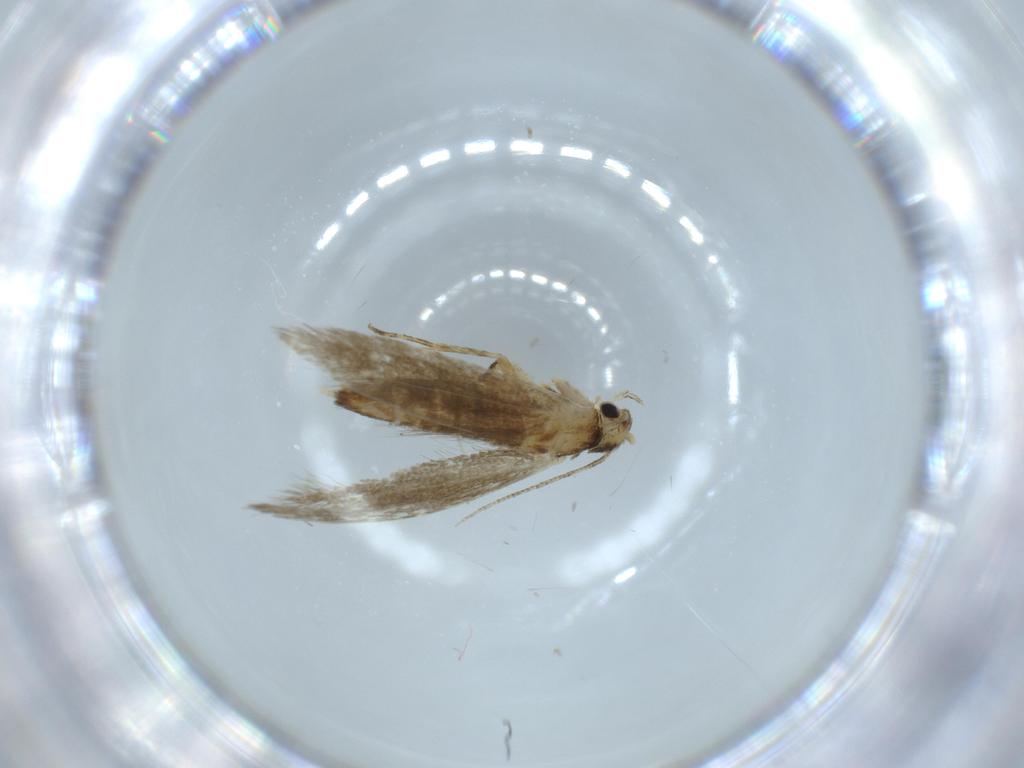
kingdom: Animalia
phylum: Arthropoda
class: Insecta
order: Lepidoptera
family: Tineidae
